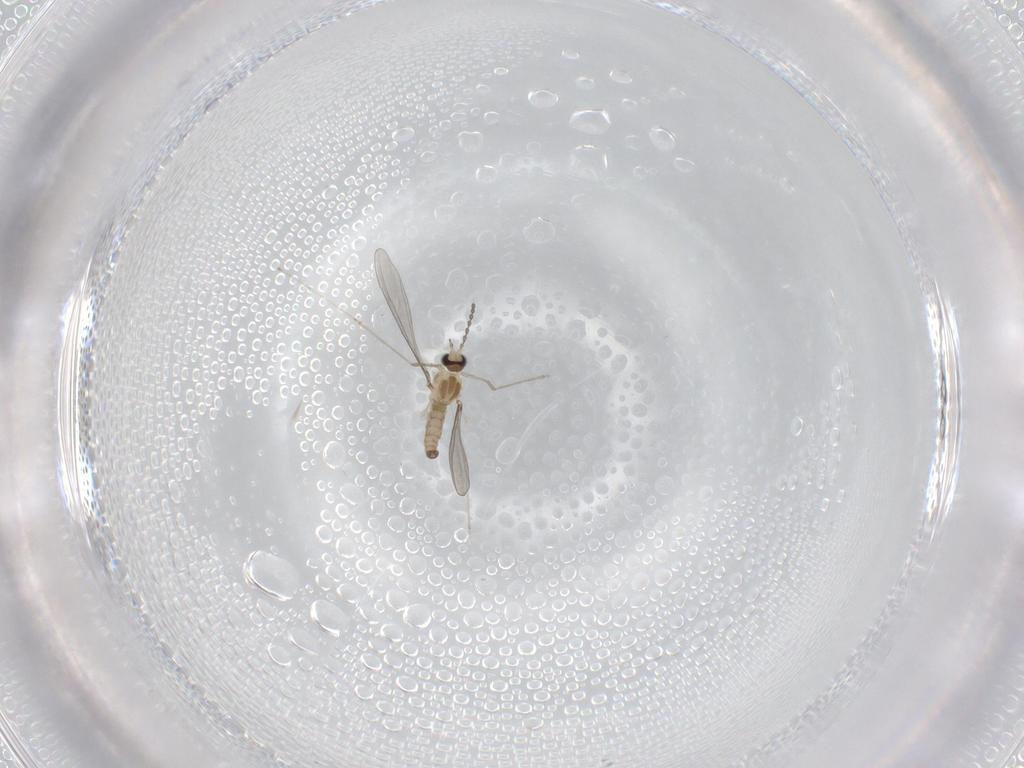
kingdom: Animalia
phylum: Arthropoda
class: Insecta
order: Diptera
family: Cecidomyiidae
